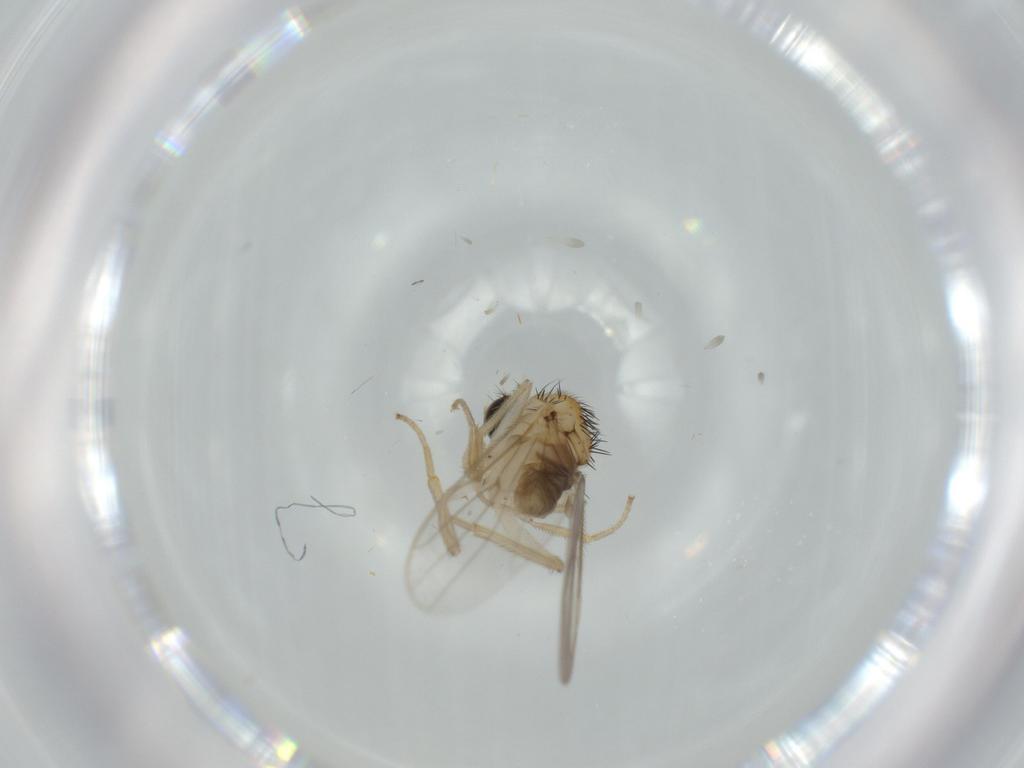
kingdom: Animalia
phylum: Arthropoda
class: Insecta
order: Diptera
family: Hybotidae
